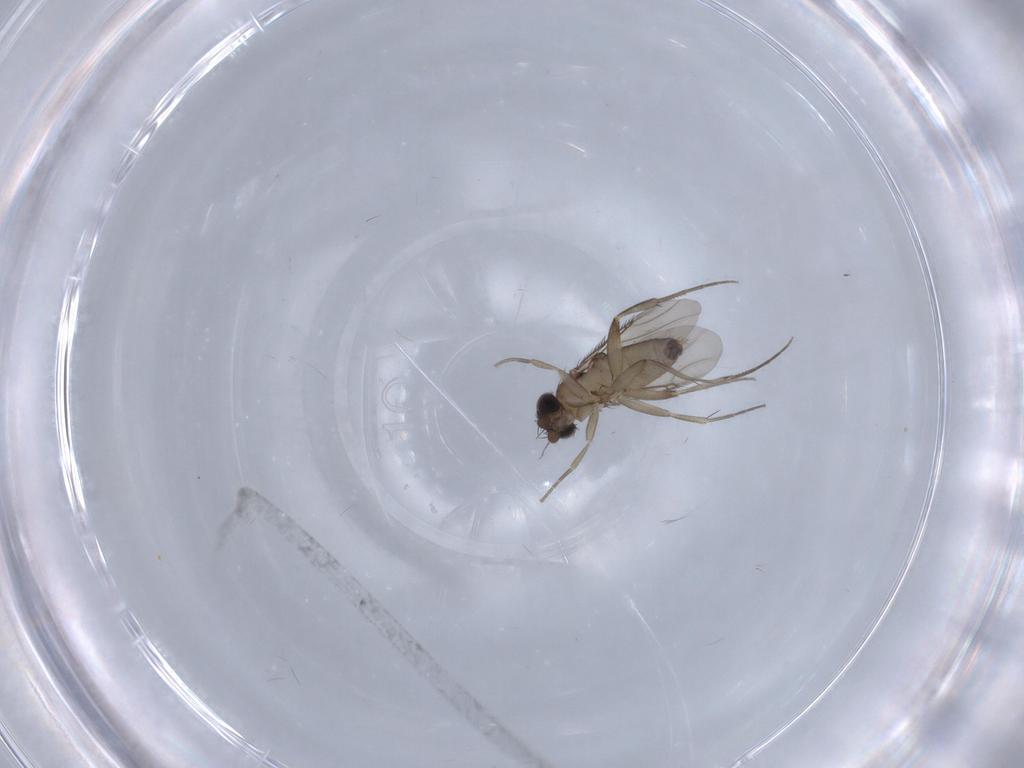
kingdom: Animalia
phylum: Arthropoda
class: Insecta
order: Diptera
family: Phoridae
